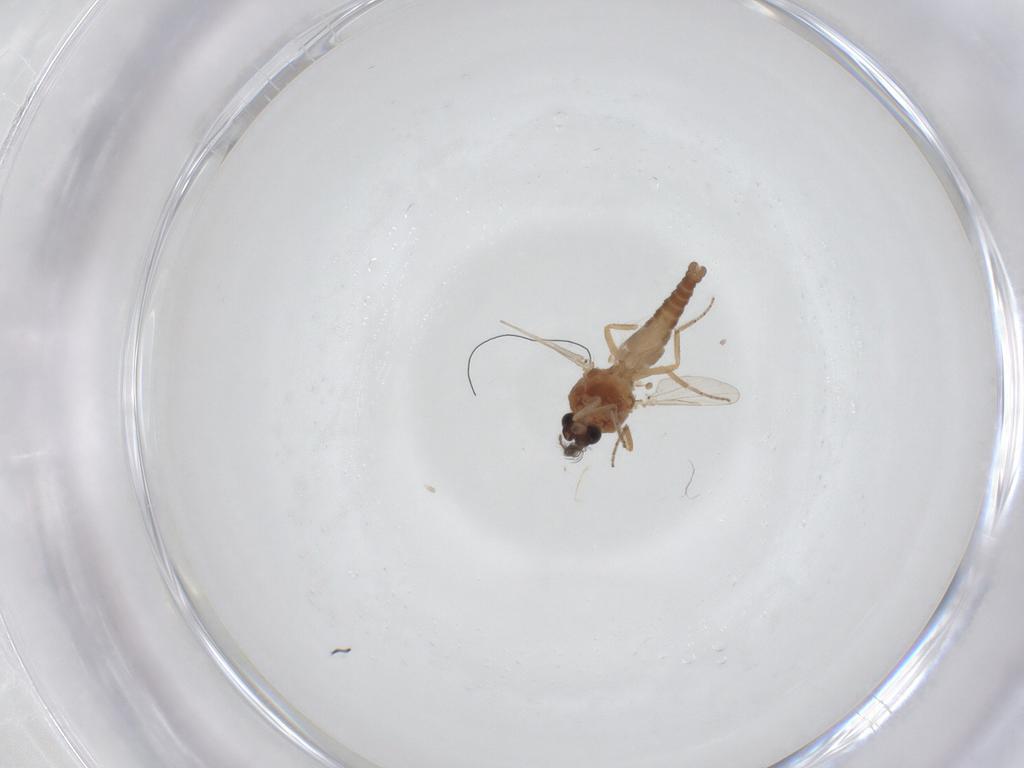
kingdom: Animalia
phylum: Arthropoda
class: Insecta
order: Diptera
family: Ceratopogonidae
